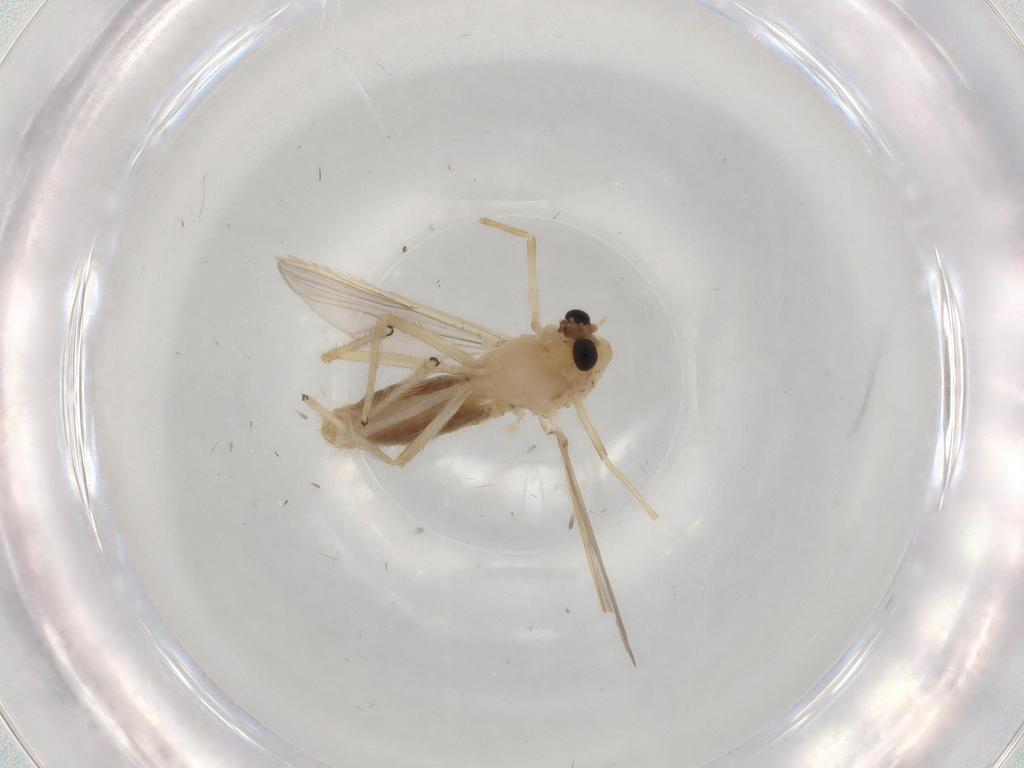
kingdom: Animalia
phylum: Arthropoda
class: Insecta
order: Diptera
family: Chironomidae
